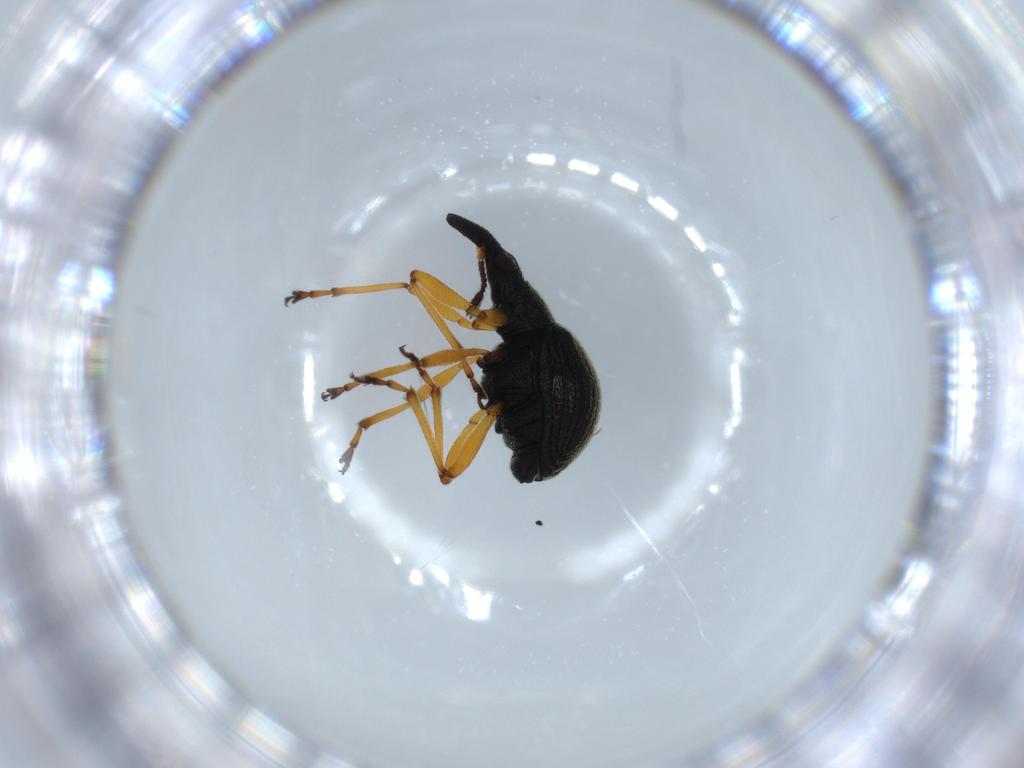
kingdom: Animalia
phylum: Arthropoda
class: Insecta
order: Coleoptera
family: Brentidae
